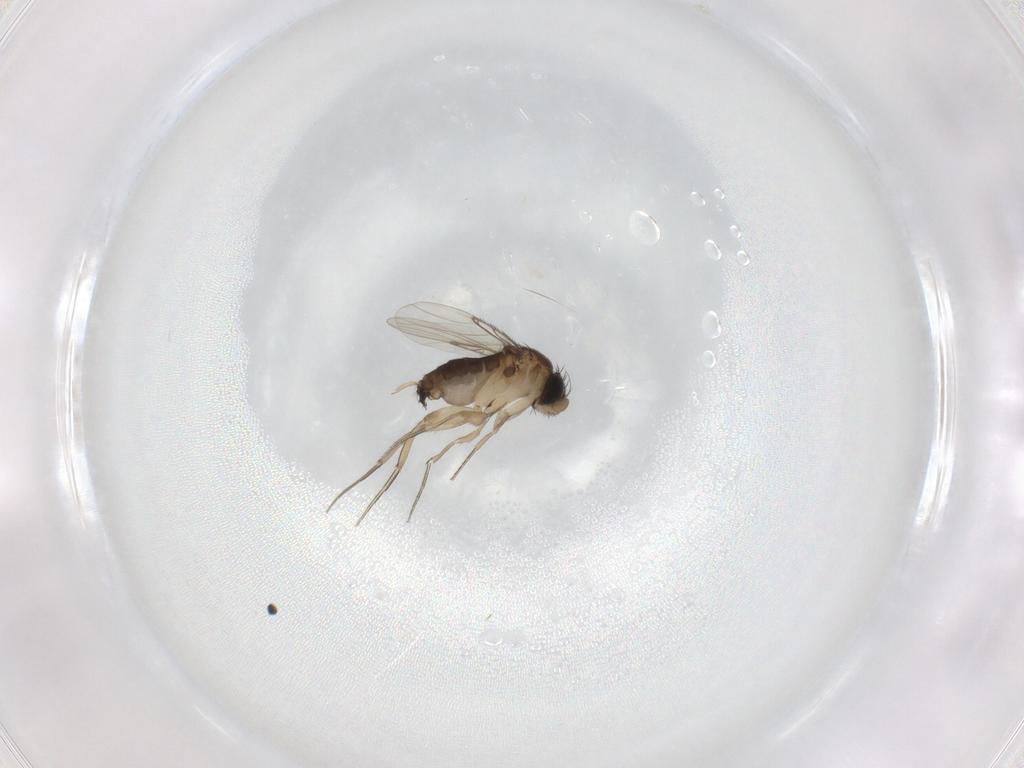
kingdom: Animalia
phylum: Arthropoda
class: Insecta
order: Diptera
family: Phoridae
